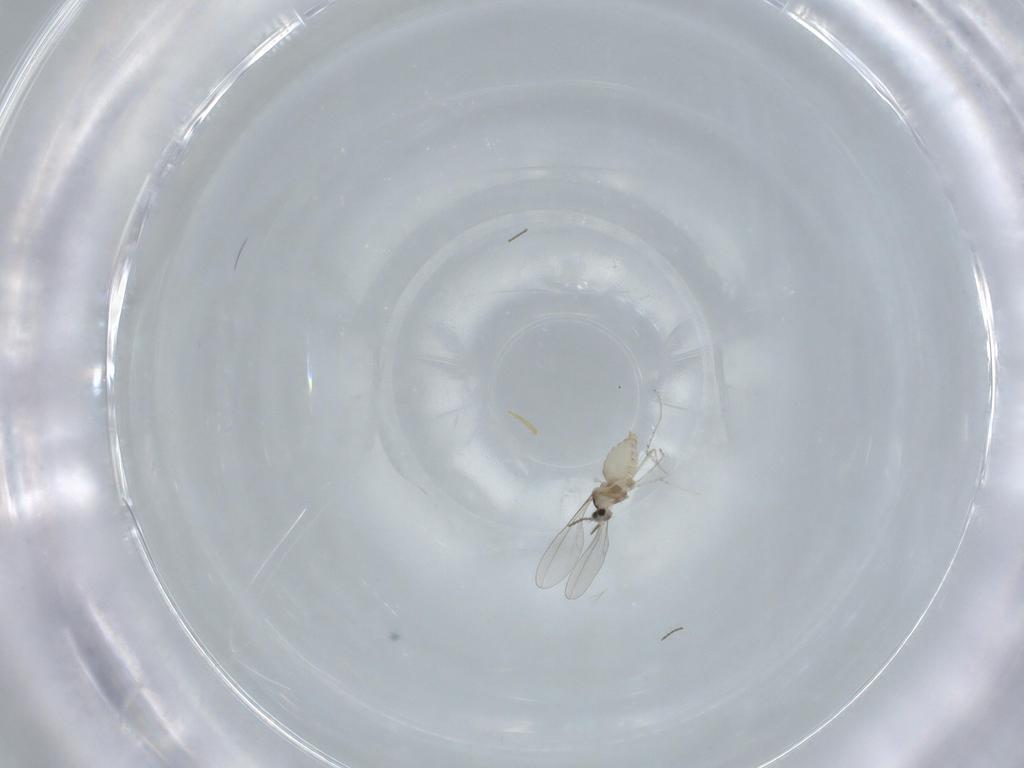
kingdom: Animalia
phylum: Arthropoda
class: Insecta
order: Diptera
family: Cecidomyiidae
